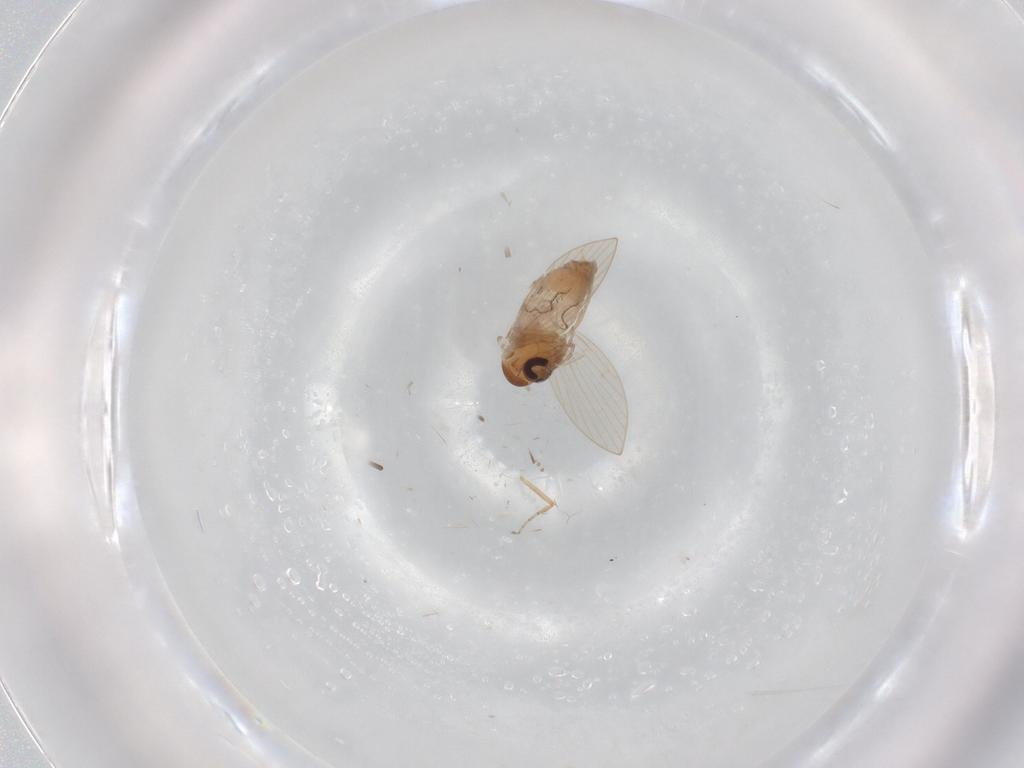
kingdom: Animalia
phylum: Arthropoda
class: Insecta
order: Diptera
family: Psychodidae
